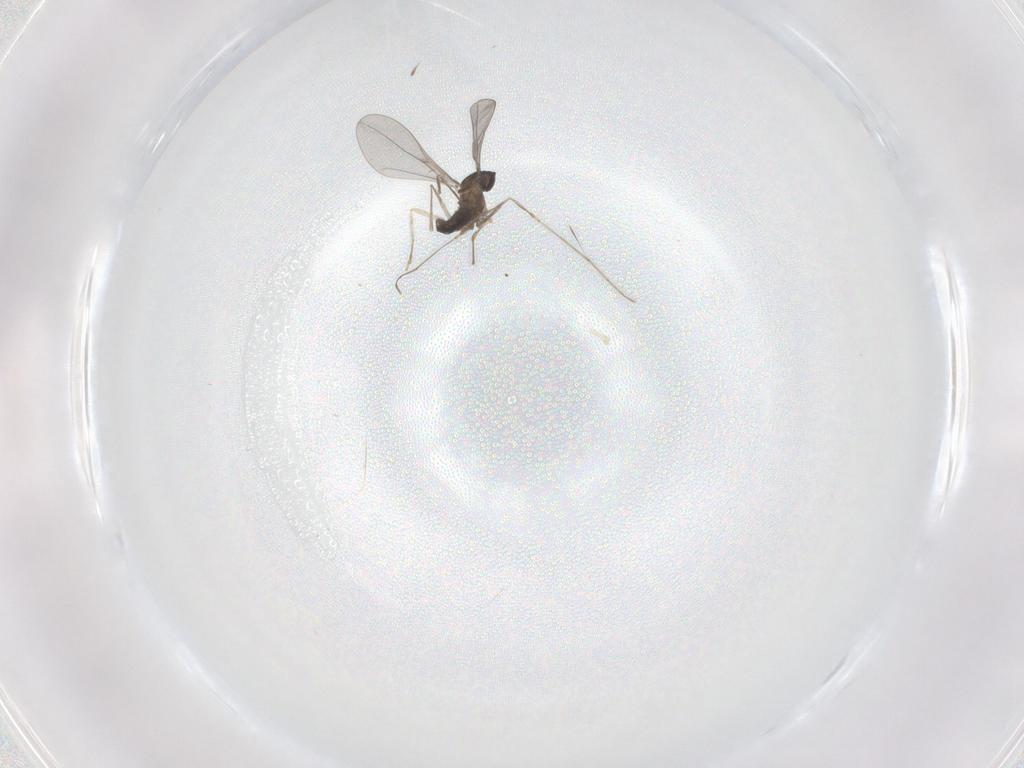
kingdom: Animalia
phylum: Arthropoda
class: Insecta
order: Diptera
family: Cecidomyiidae
